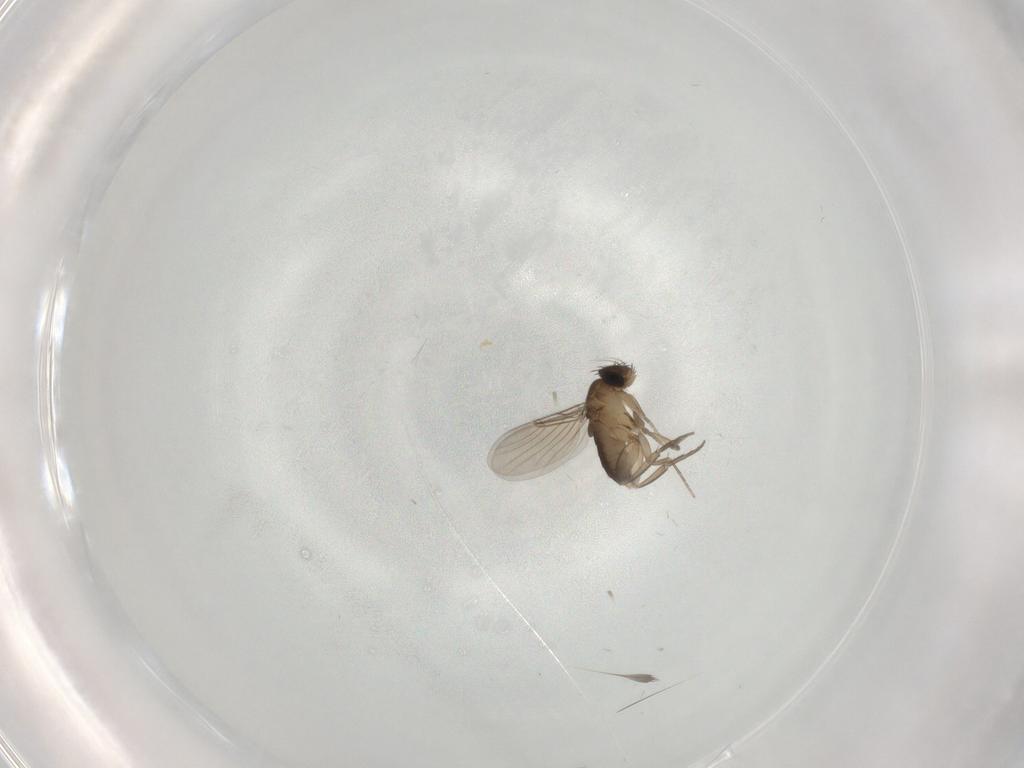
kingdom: Animalia
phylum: Arthropoda
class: Insecta
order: Diptera
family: Phoridae
